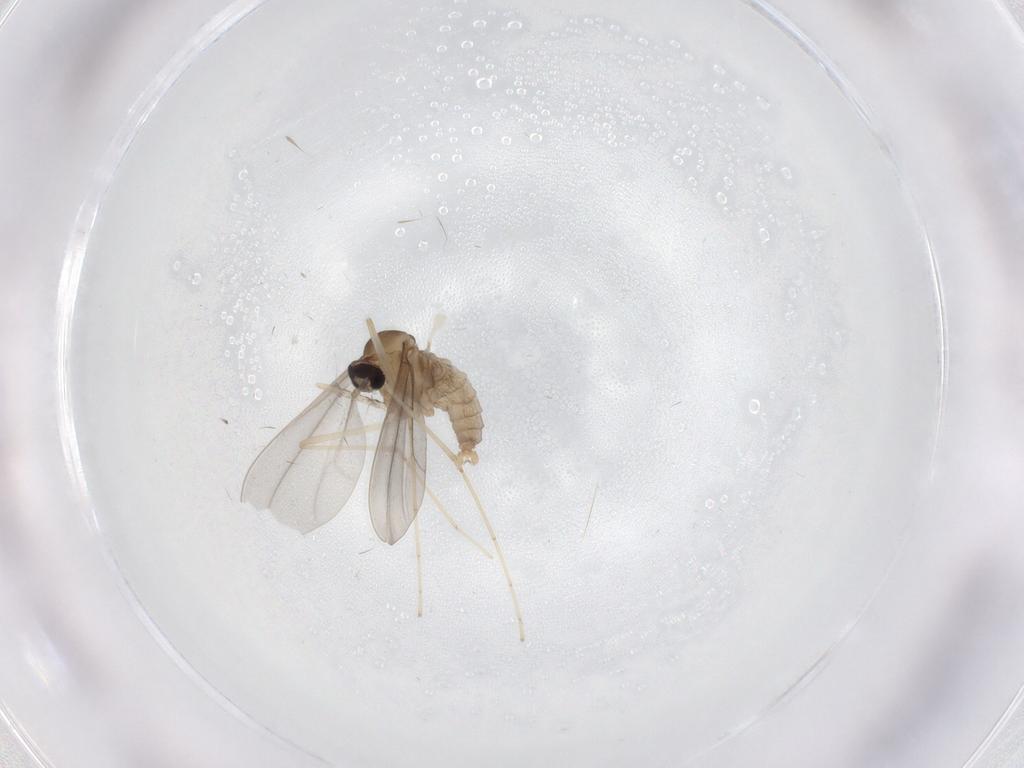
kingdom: Animalia
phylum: Arthropoda
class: Insecta
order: Diptera
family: Cecidomyiidae
